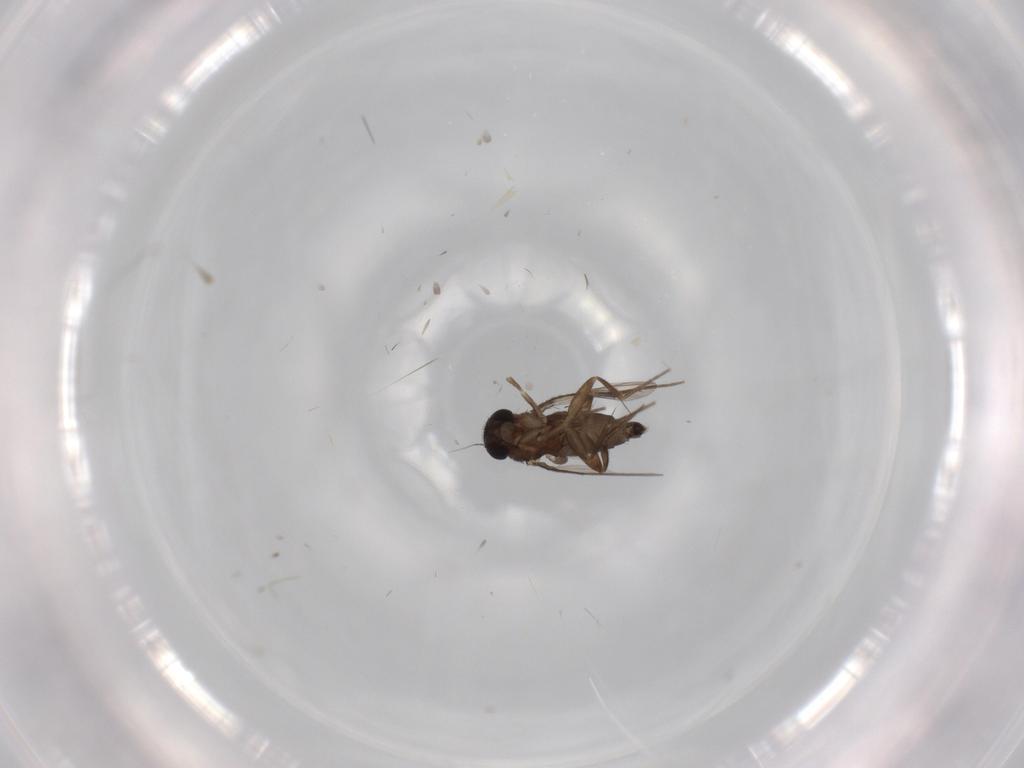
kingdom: Animalia
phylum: Arthropoda
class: Insecta
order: Diptera
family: Phoridae
